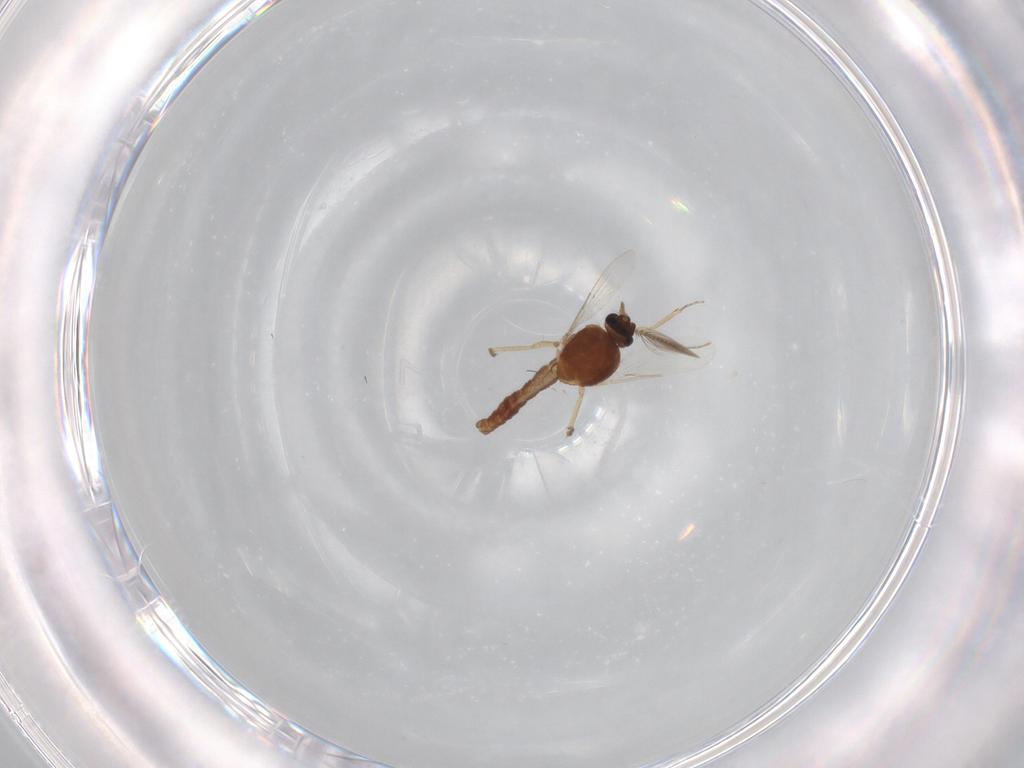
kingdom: Animalia
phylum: Arthropoda
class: Insecta
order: Diptera
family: Ceratopogonidae
